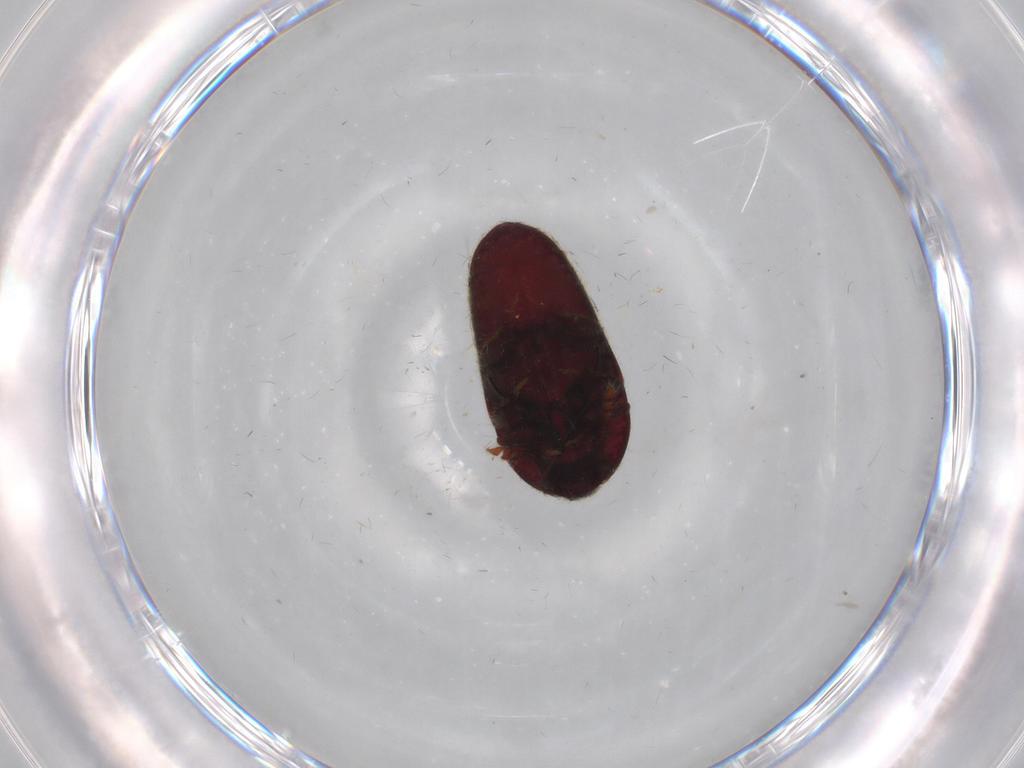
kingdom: Animalia
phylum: Arthropoda
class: Insecta
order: Coleoptera
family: Throscidae
